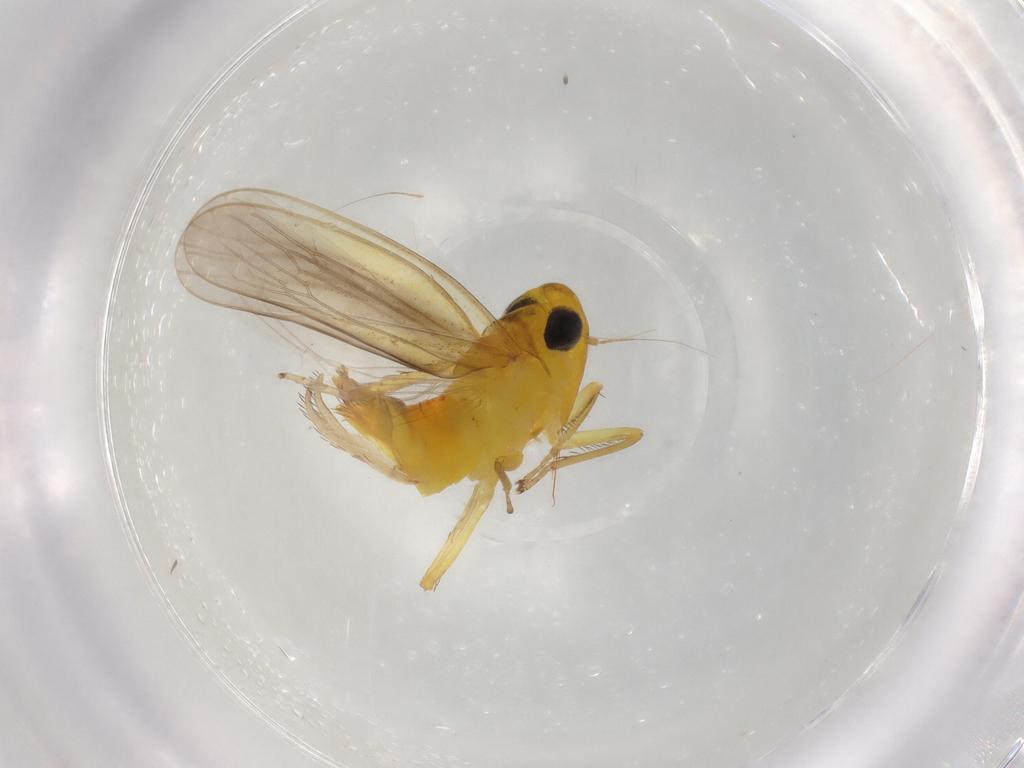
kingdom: Animalia
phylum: Arthropoda
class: Insecta
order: Hemiptera
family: Cicadellidae
